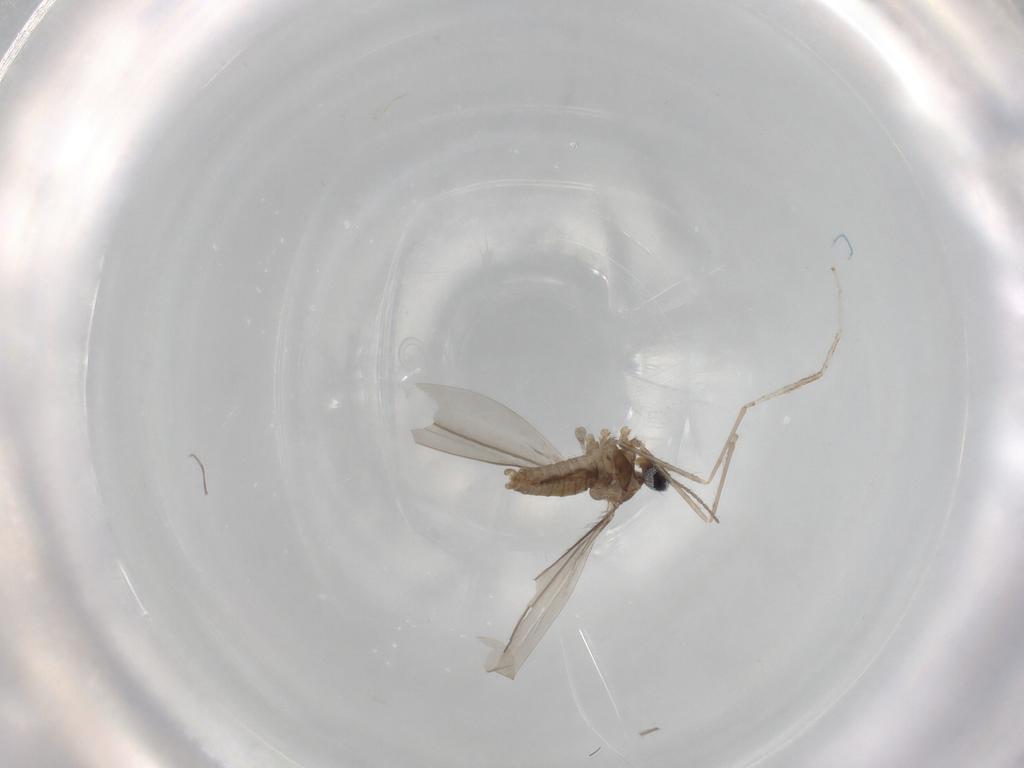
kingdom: Animalia
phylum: Arthropoda
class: Insecta
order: Diptera
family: Cecidomyiidae
